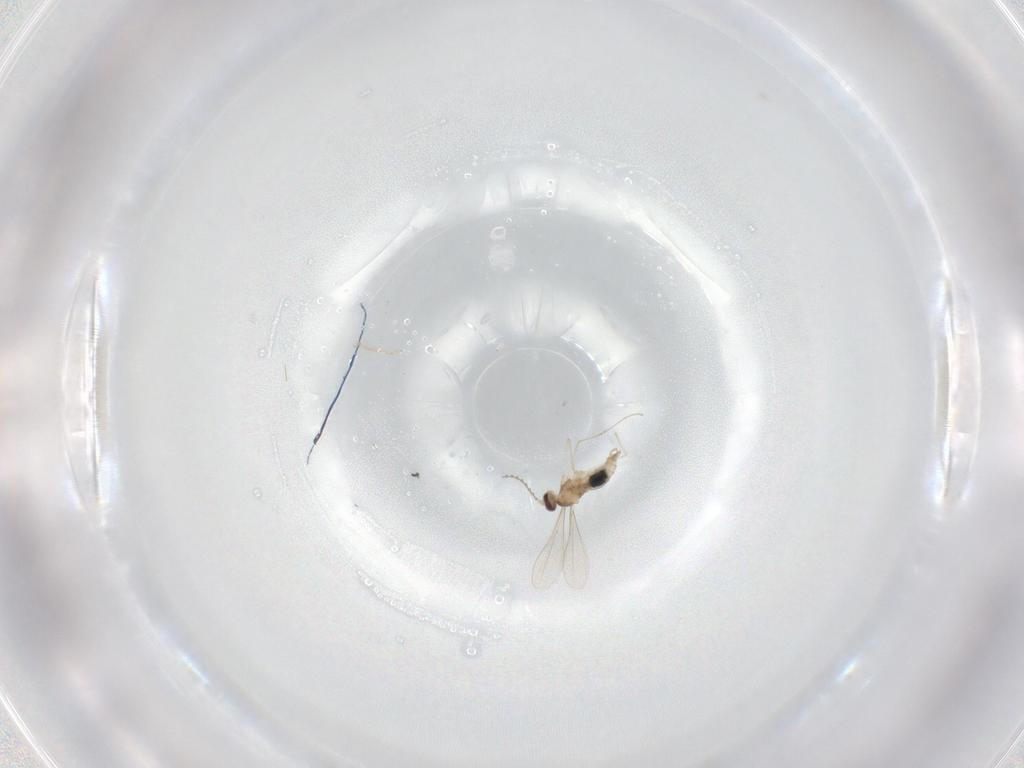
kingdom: Animalia
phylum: Arthropoda
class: Insecta
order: Diptera
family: Cecidomyiidae
